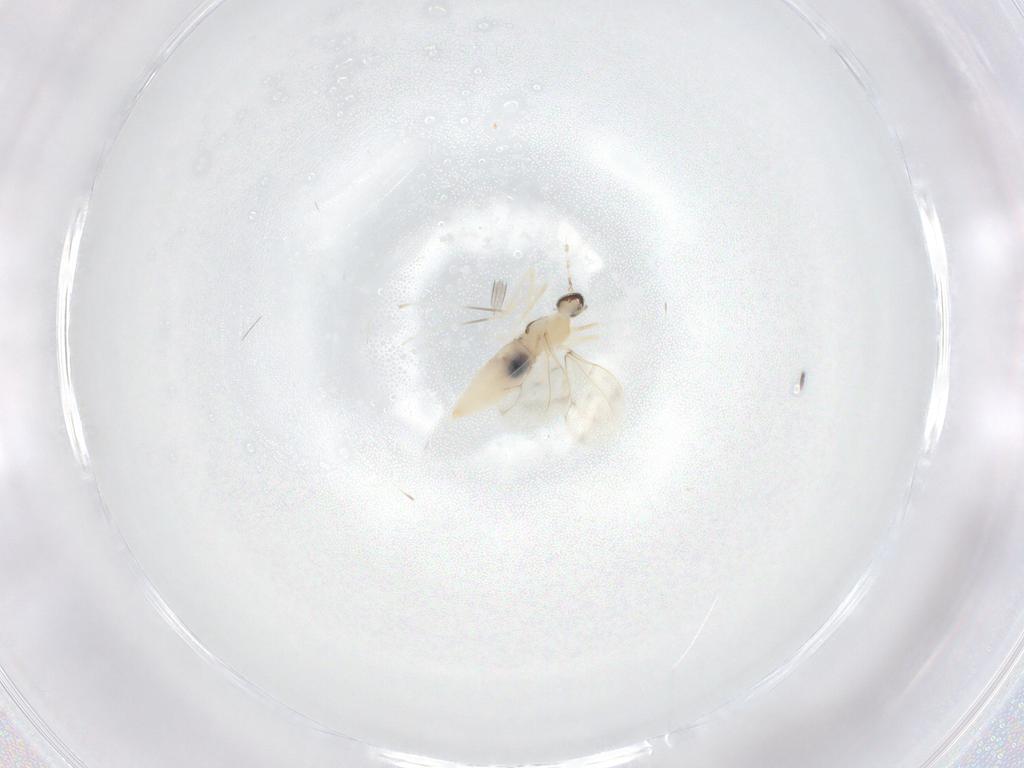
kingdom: Animalia
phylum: Arthropoda
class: Insecta
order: Diptera
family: Cecidomyiidae
